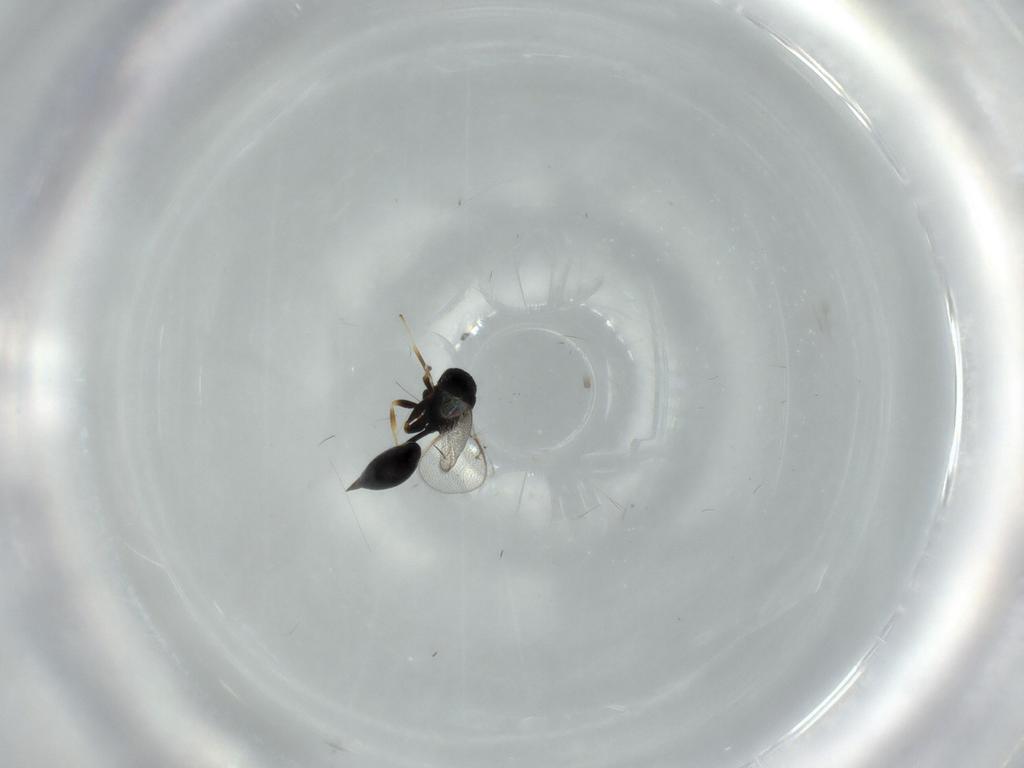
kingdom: Animalia
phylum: Arthropoda
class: Insecta
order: Hymenoptera
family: Eurytomidae
